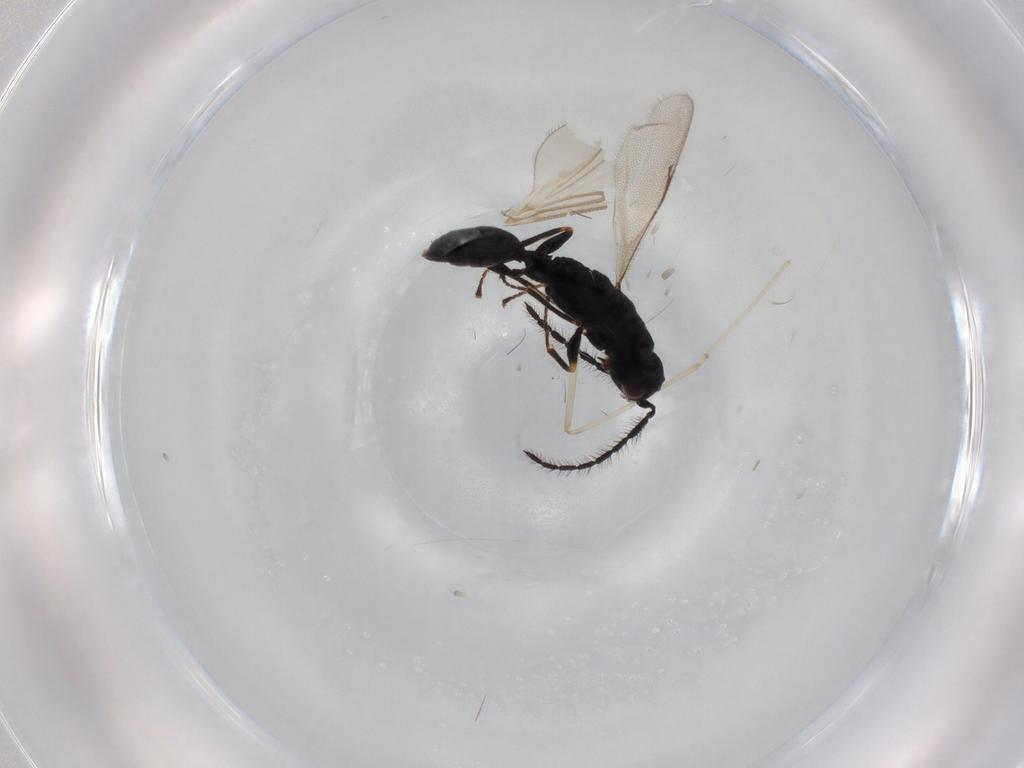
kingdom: Animalia
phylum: Arthropoda
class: Insecta
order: Hymenoptera
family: Eurytomidae
